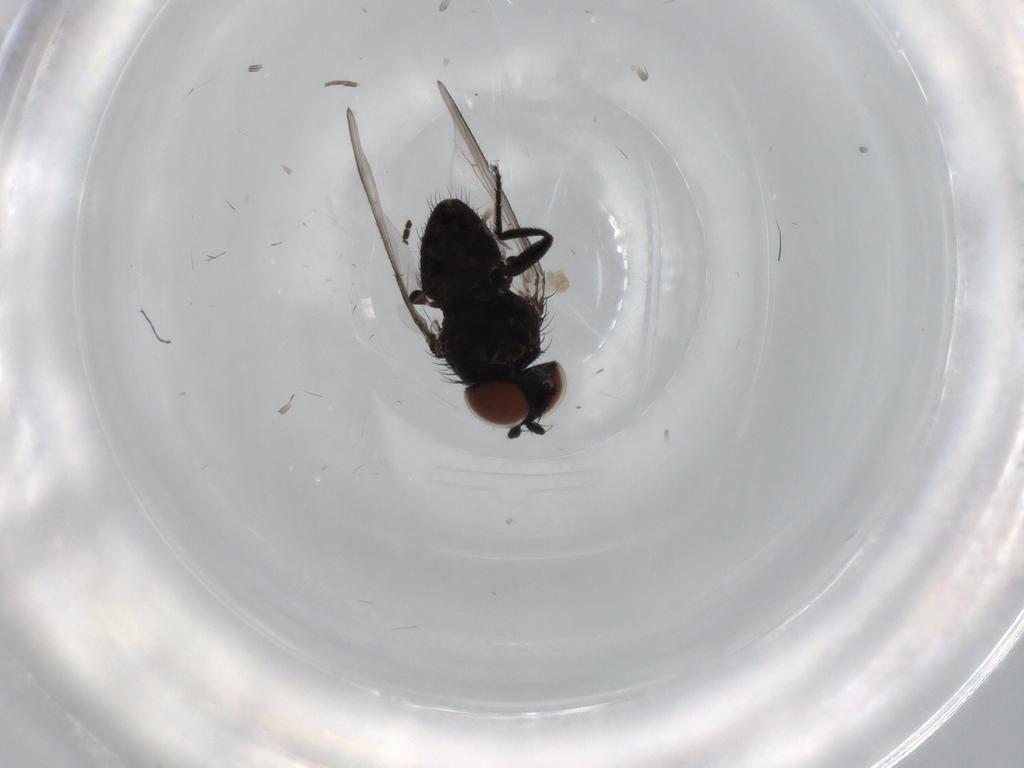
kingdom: Animalia
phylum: Arthropoda
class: Insecta
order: Diptera
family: Milichiidae
